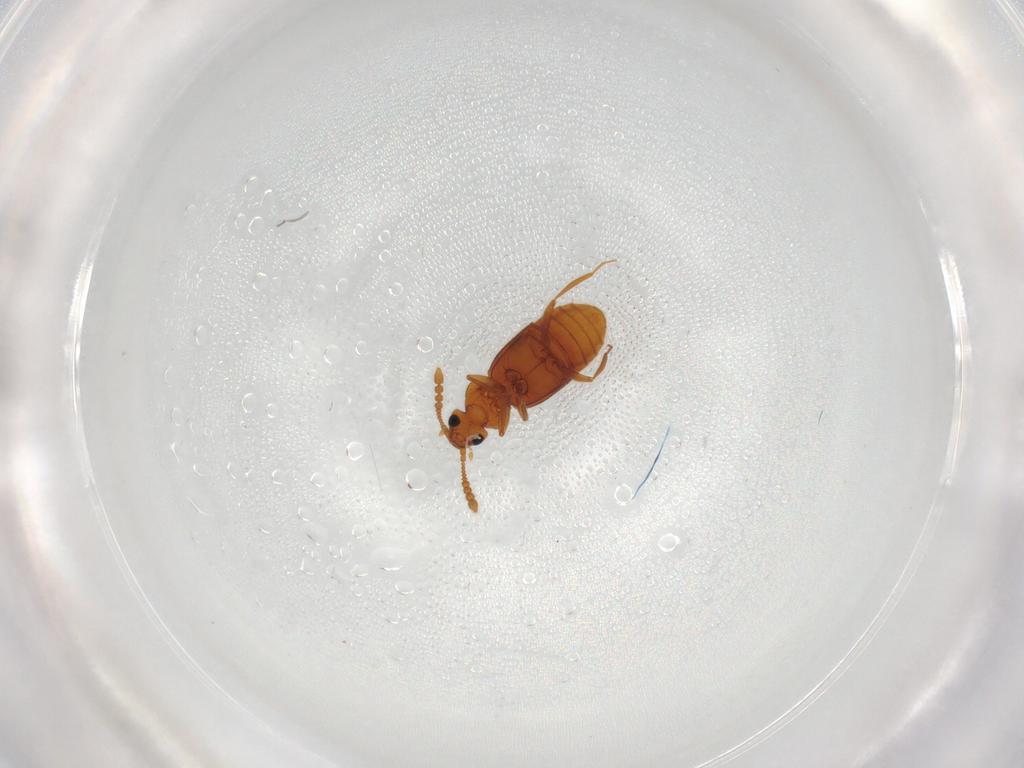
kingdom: Animalia
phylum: Arthropoda
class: Insecta
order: Coleoptera
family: Staphylinidae
